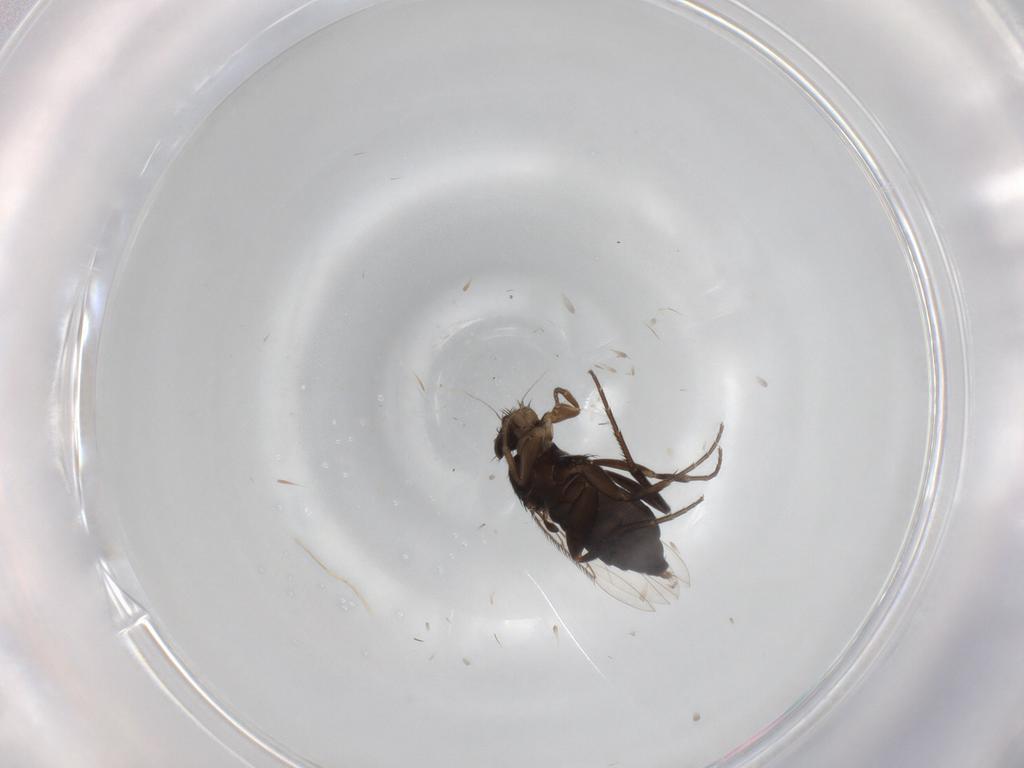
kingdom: Animalia
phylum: Arthropoda
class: Insecta
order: Diptera
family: Phoridae
